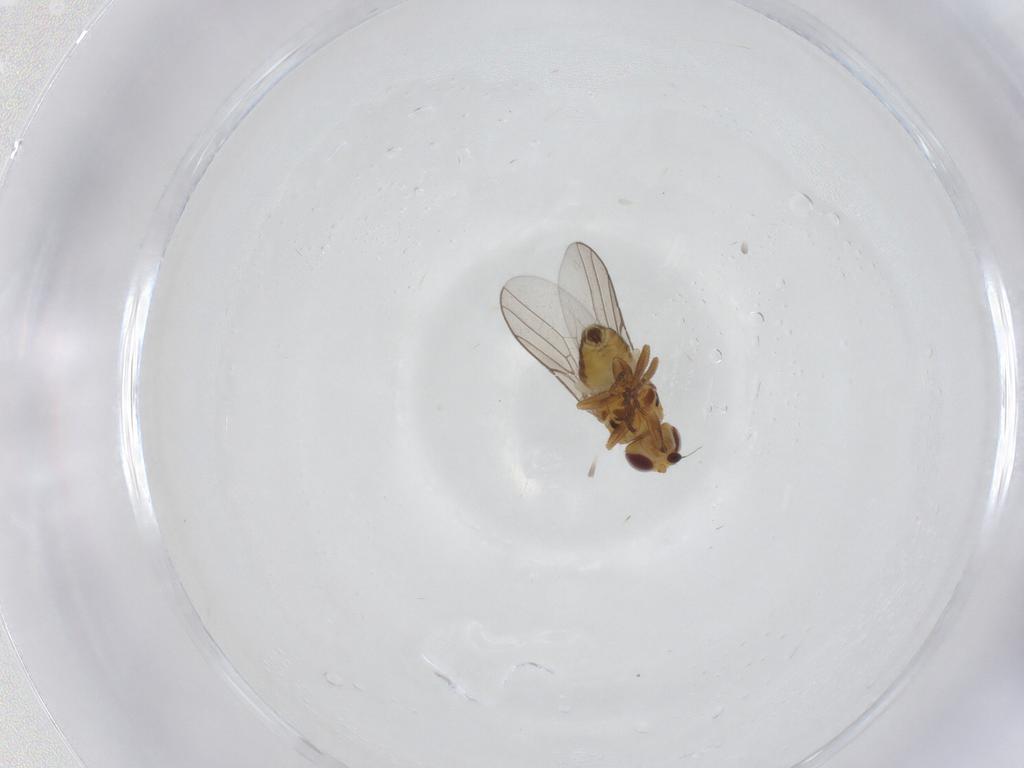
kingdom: Animalia
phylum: Arthropoda
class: Insecta
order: Diptera
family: Chloropidae
